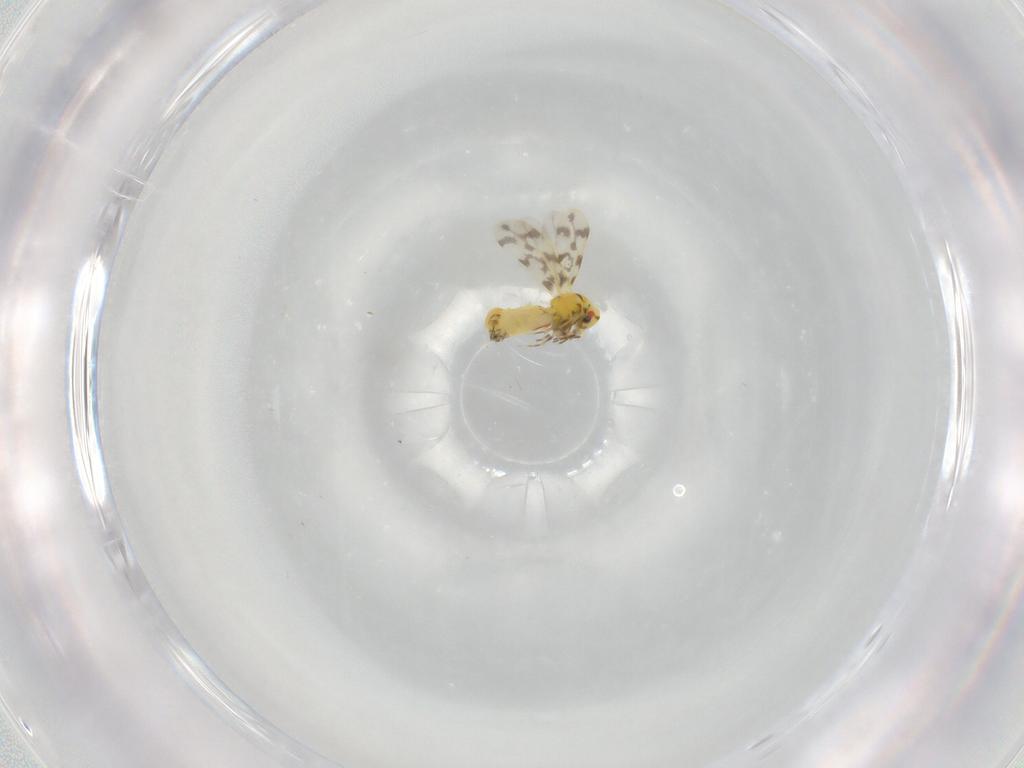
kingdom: Animalia
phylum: Arthropoda
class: Insecta
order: Hemiptera
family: Aleyrodidae
